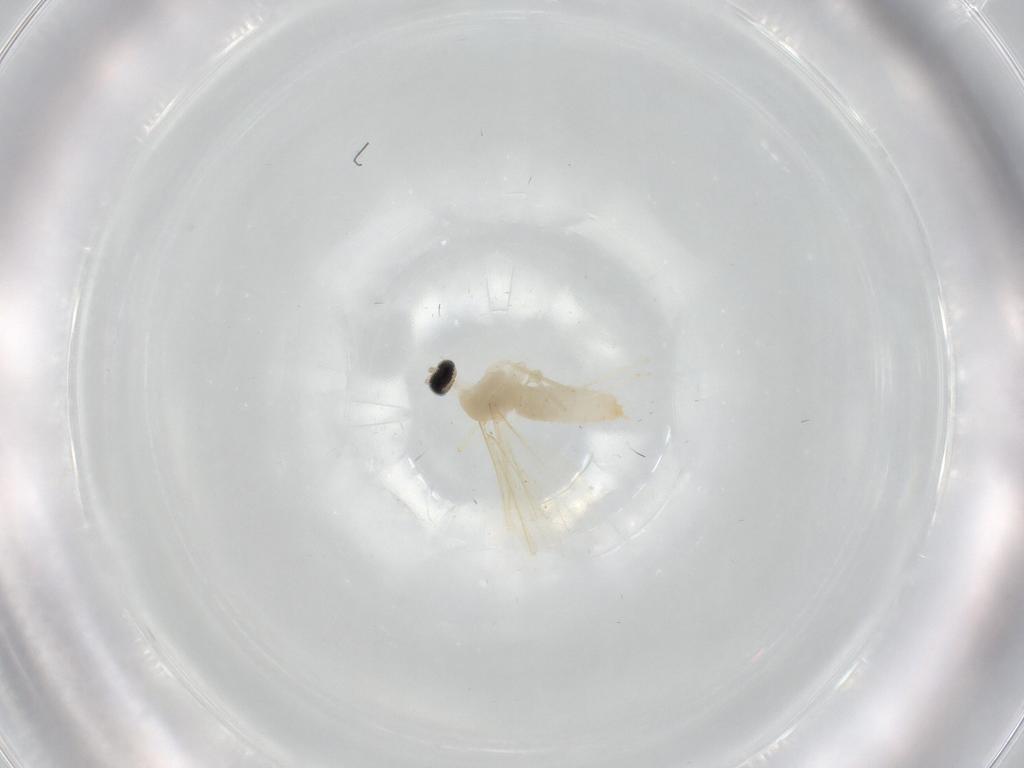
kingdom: Animalia
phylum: Arthropoda
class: Insecta
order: Diptera
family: Cecidomyiidae
